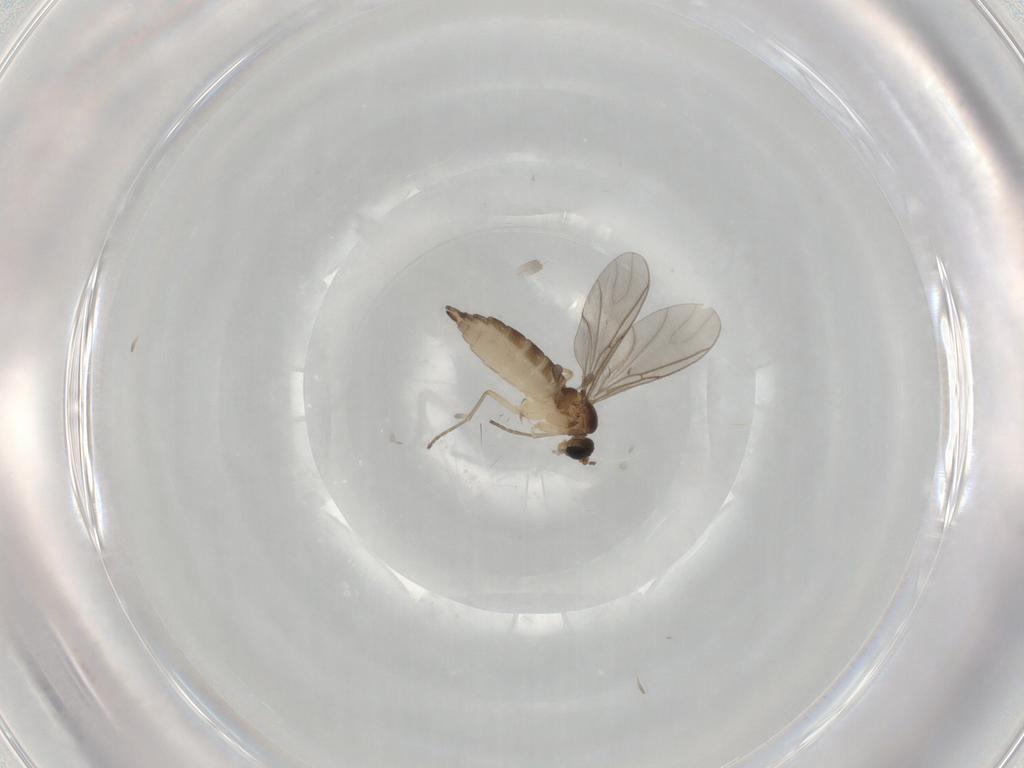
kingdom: Animalia
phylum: Arthropoda
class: Insecta
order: Diptera
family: Sciaridae
